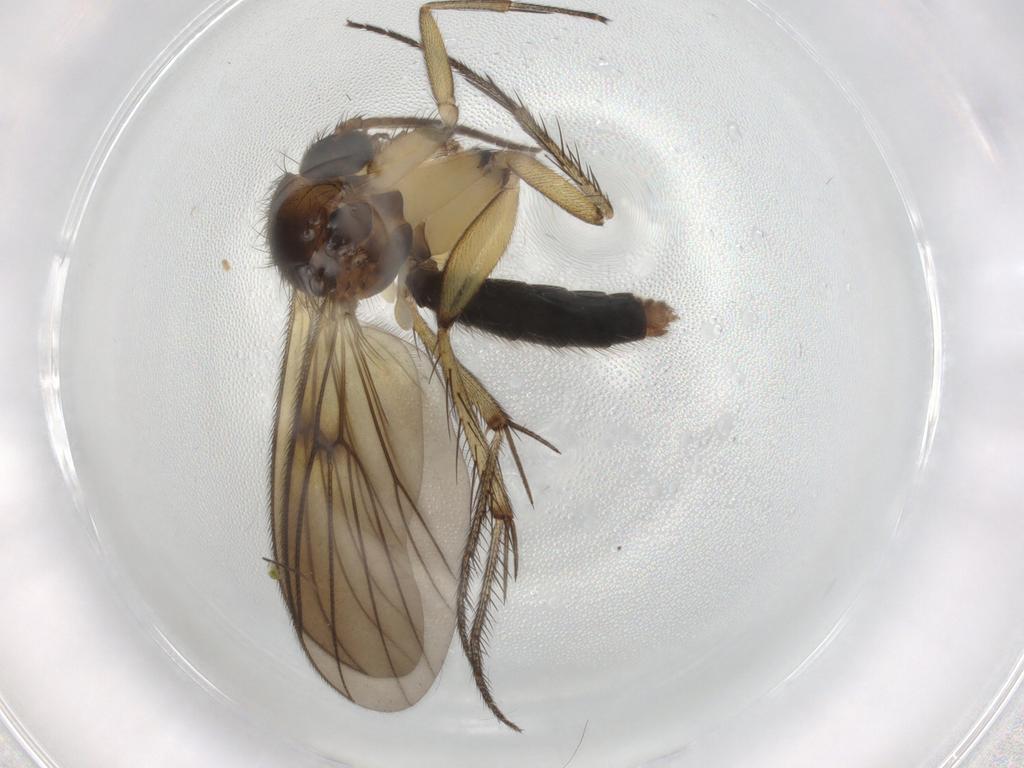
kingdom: Animalia
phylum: Arthropoda
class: Insecta
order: Diptera
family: Mycetophilidae
